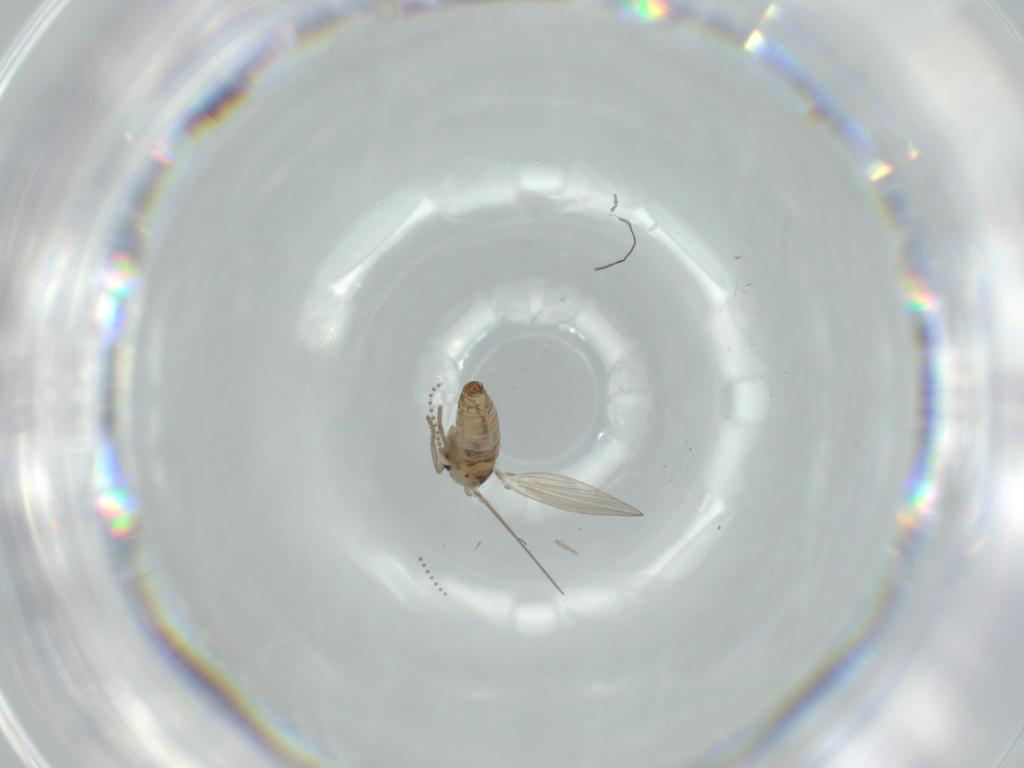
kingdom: Animalia
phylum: Arthropoda
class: Insecta
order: Diptera
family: Psychodidae
